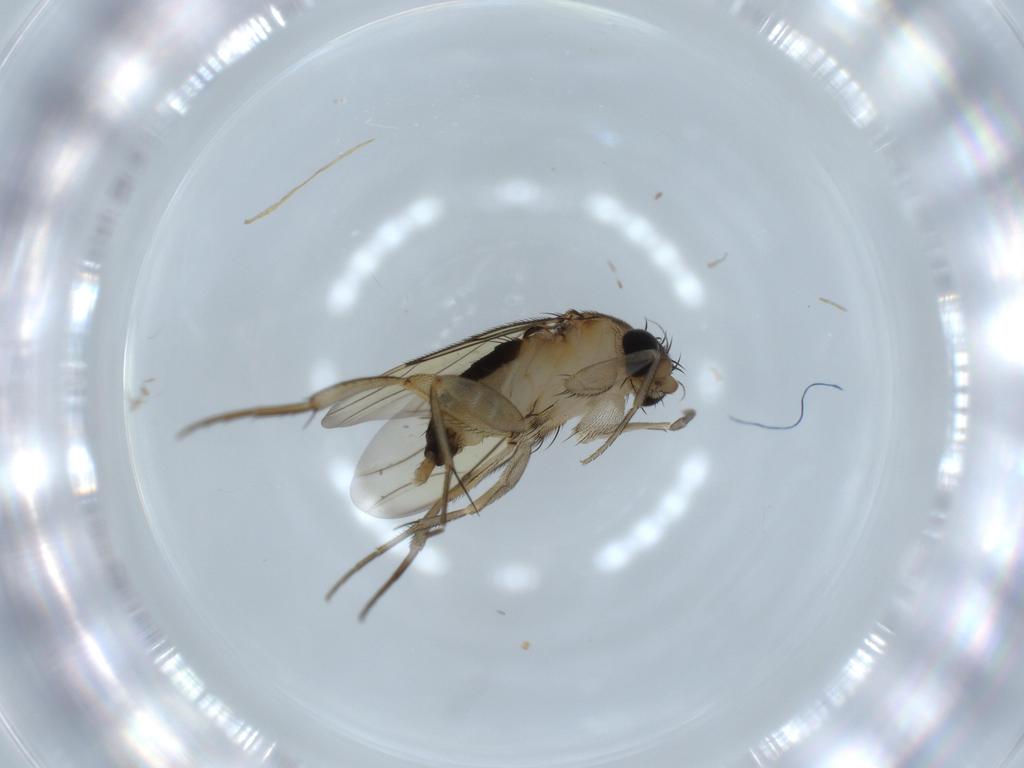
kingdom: Animalia
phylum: Arthropoda
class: Insecta
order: Diptera
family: Phoridae
